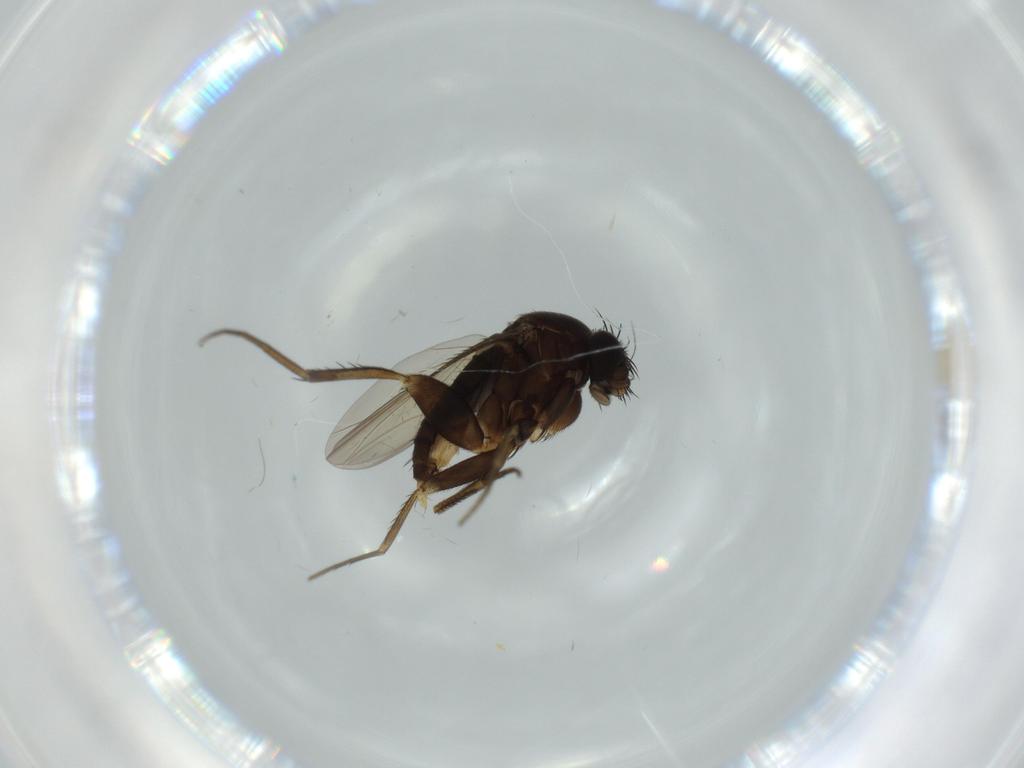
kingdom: Animalia
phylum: Arthropoda
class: Insecta
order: Diptera
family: Phoridae
